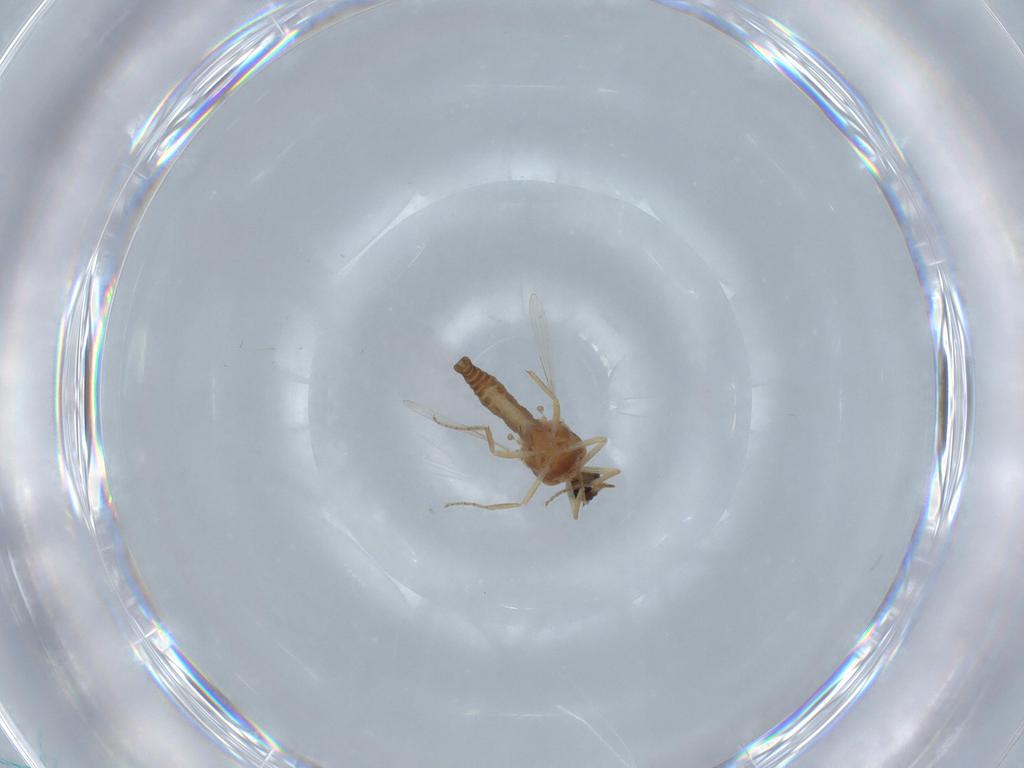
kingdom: Animalia
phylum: Arthropoda
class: Insecta
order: Diptera
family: Ceratopogonidae
